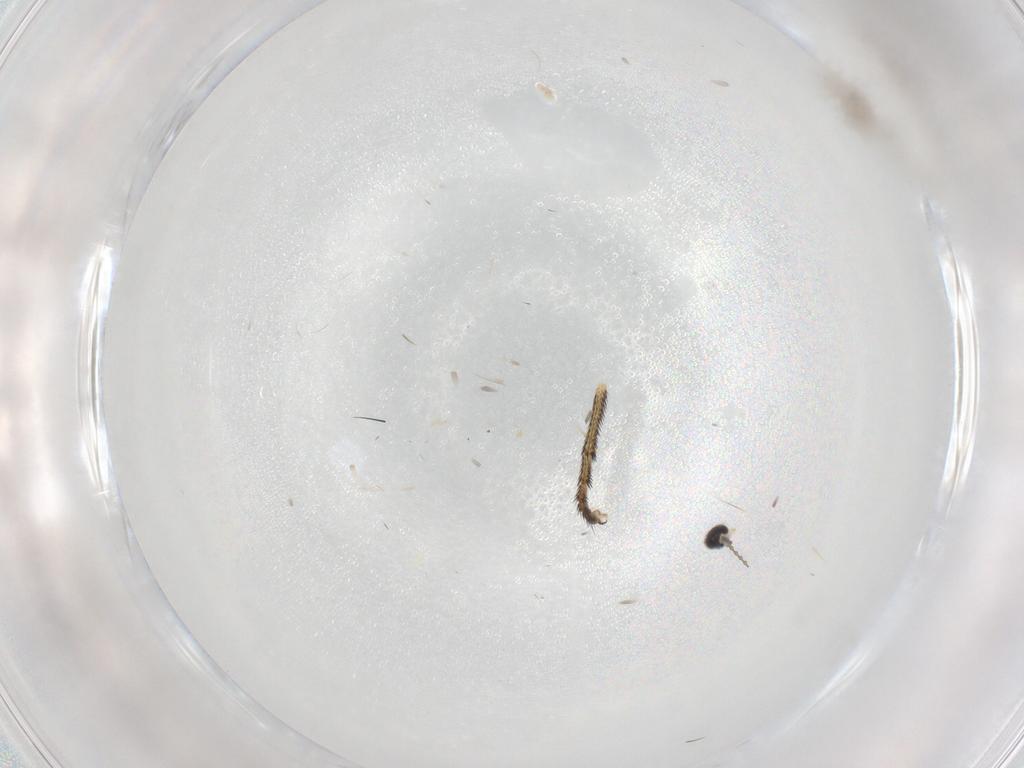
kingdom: Animalia
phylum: Arthropoda
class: Insecta
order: Diptera
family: Cecidomyiidae
